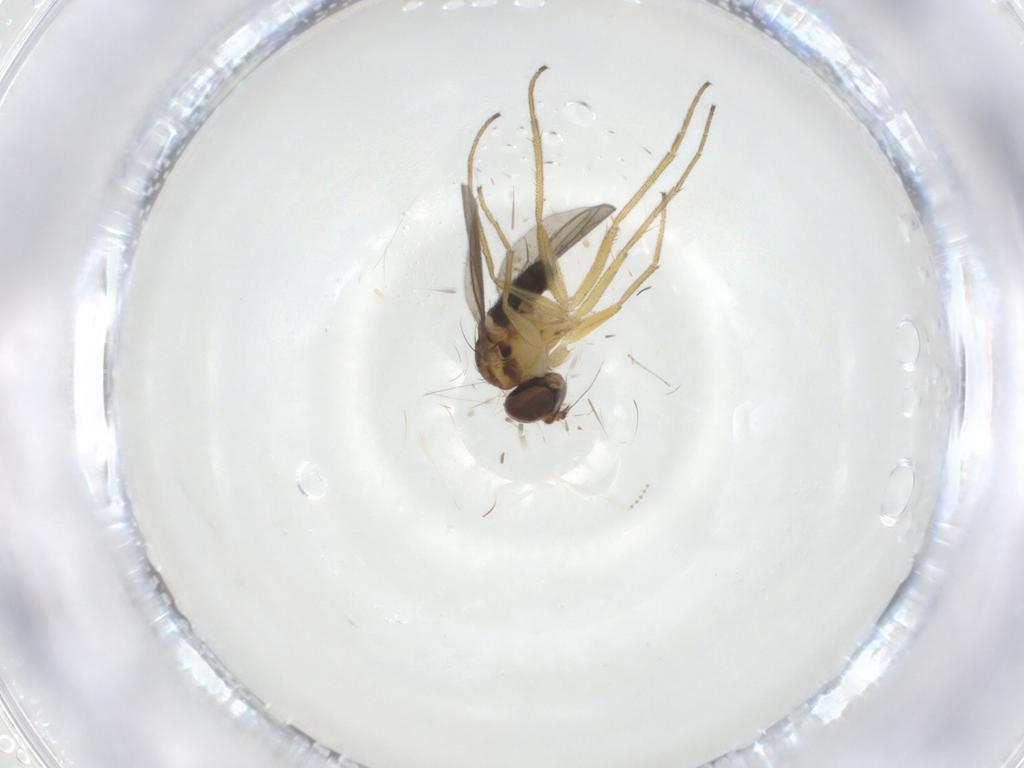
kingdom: Animalia
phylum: Arthropoda
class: Insecta
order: Diptera
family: Dolichopodidae
